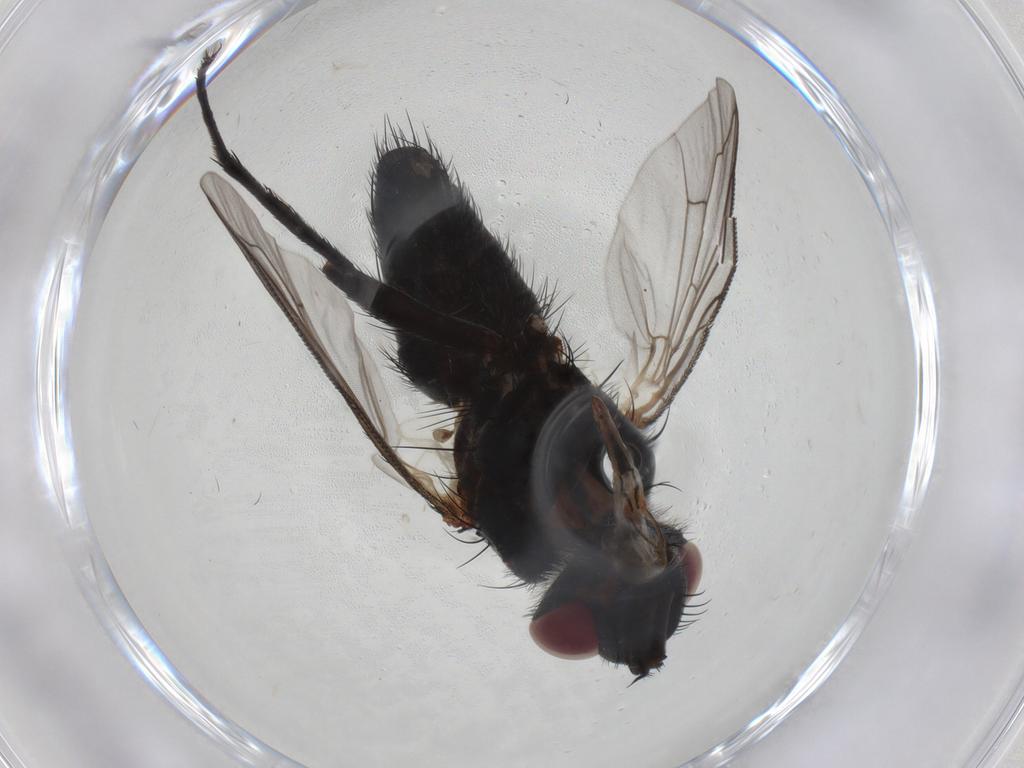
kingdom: Animalia
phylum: Arthropoda
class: Insecta
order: Diptera
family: Tachinidae
